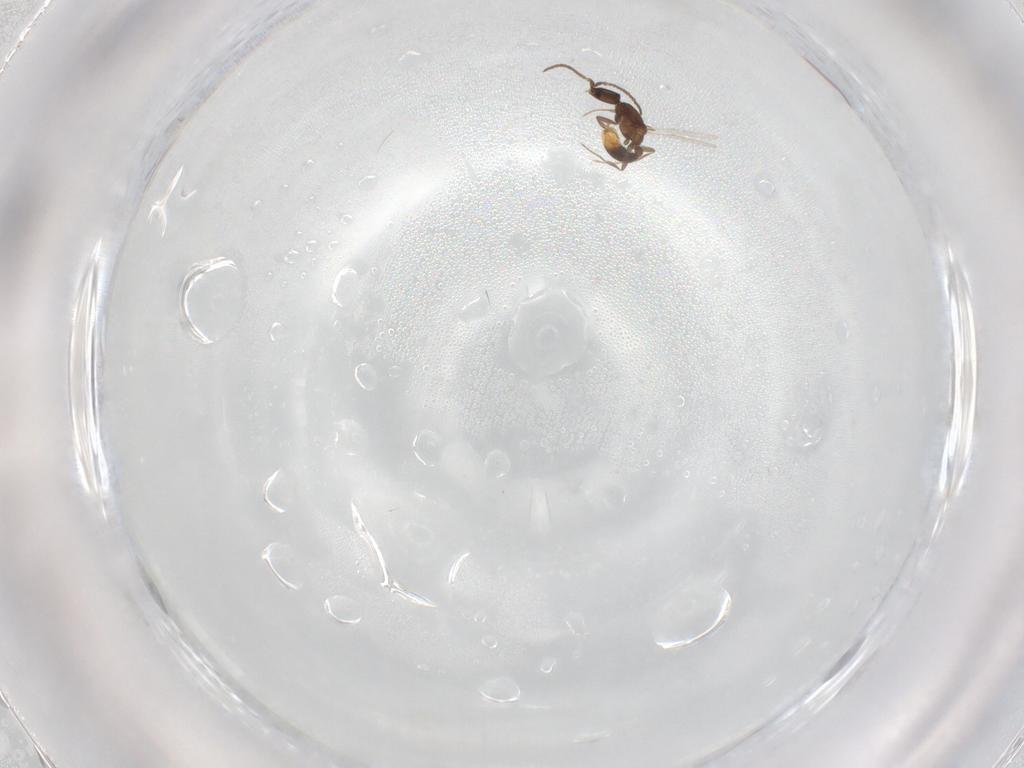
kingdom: Animalia
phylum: Arthropoda
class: Insecta
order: Hymenoptera
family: Formicidae
